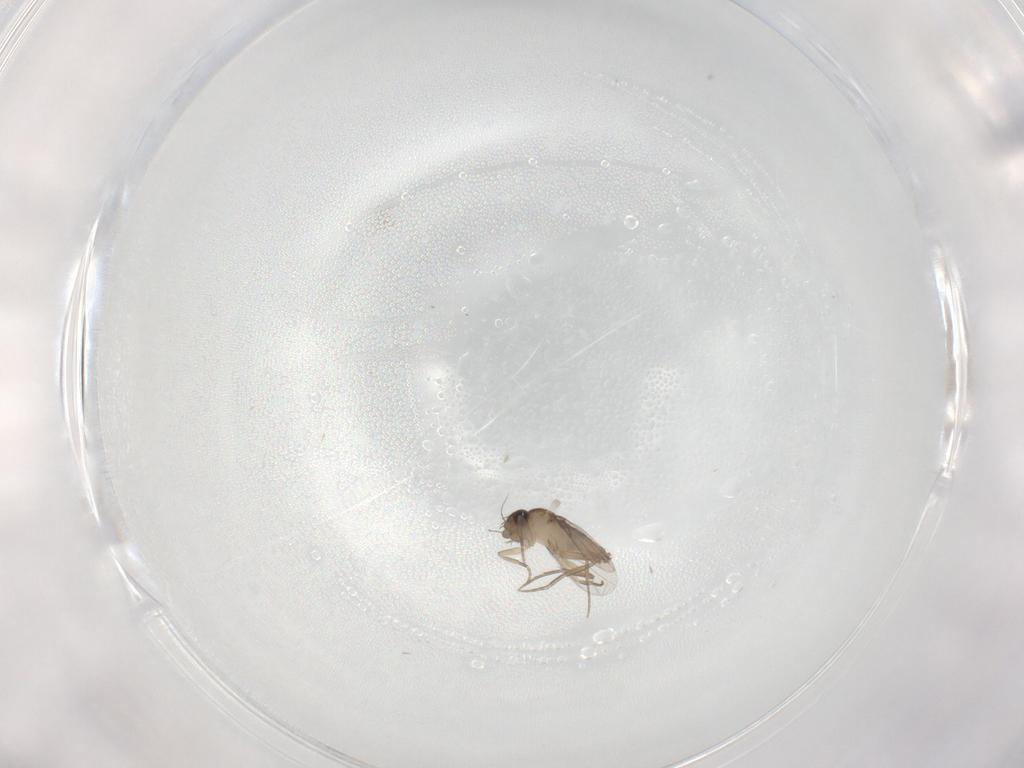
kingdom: Animalia
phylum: Arthropoda
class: Insecta
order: Diptera
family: Phoridae
